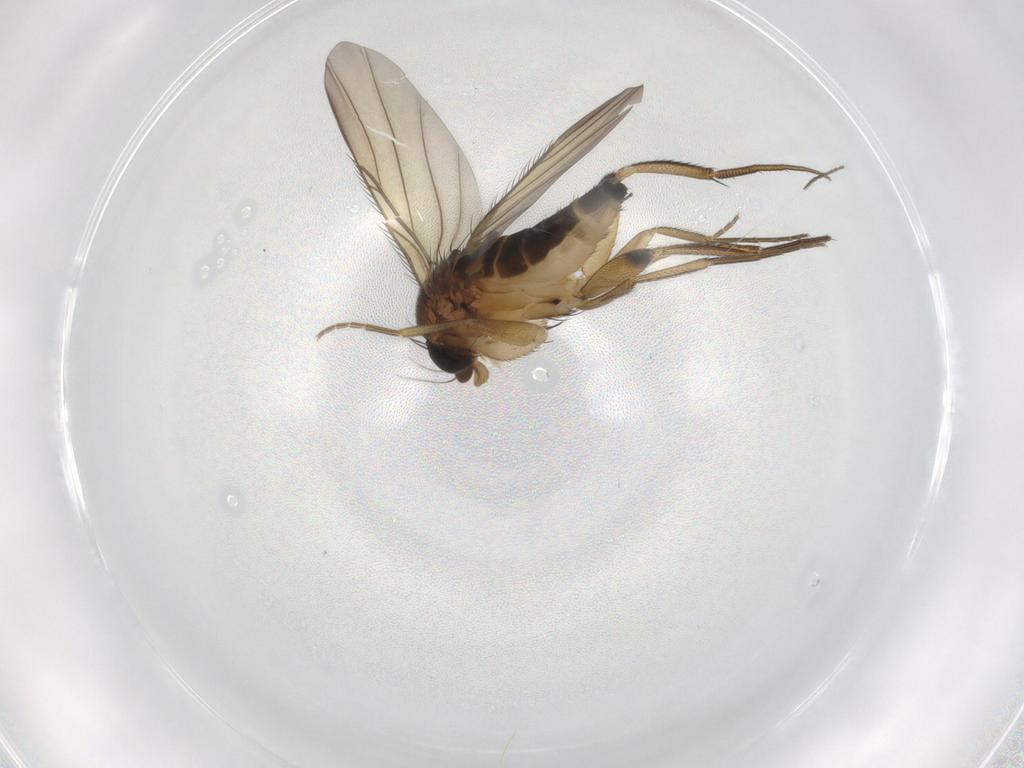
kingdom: Animalia
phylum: Arthropoda
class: Insecta
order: Diptera
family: Phoridae
